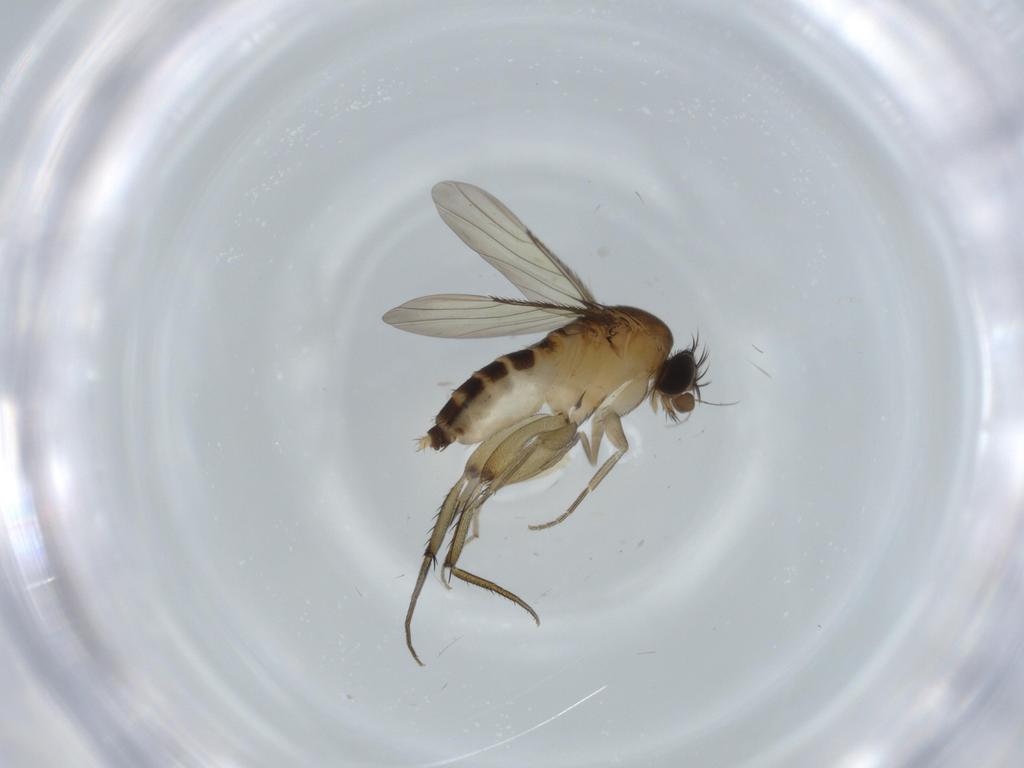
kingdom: Animalia
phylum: Arthropoda
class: Insecta
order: Diptera
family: Phoridae
